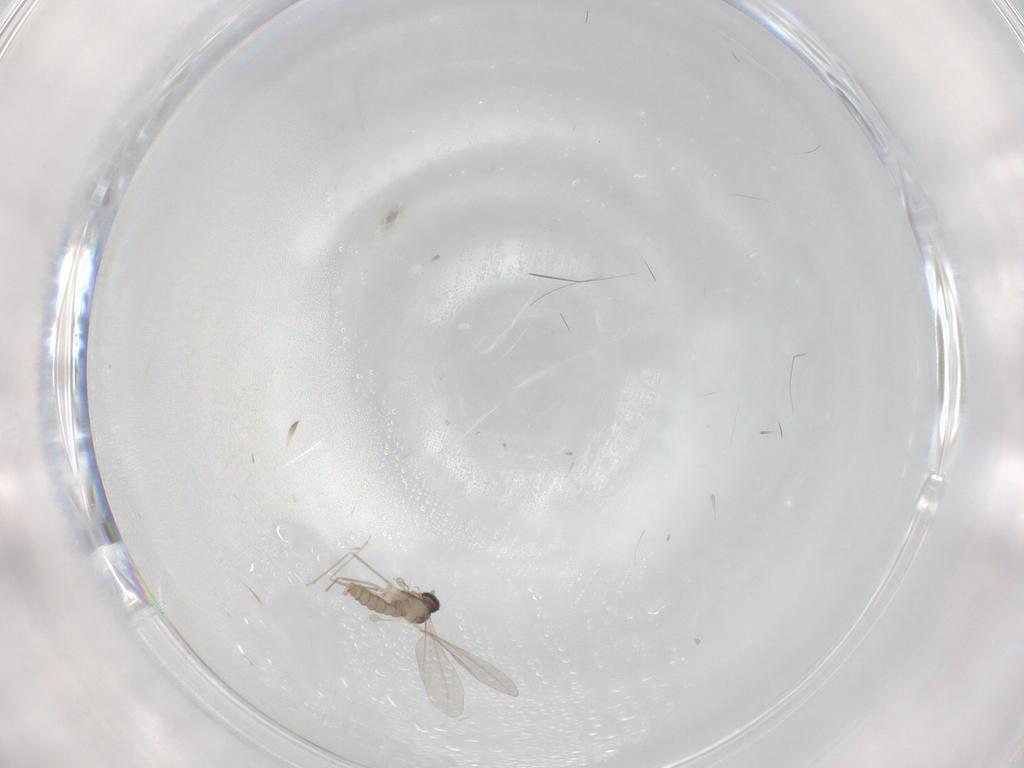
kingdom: Animalia
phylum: Arthropoda
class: Insecta
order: Diptera
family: Cecidomyiidae
